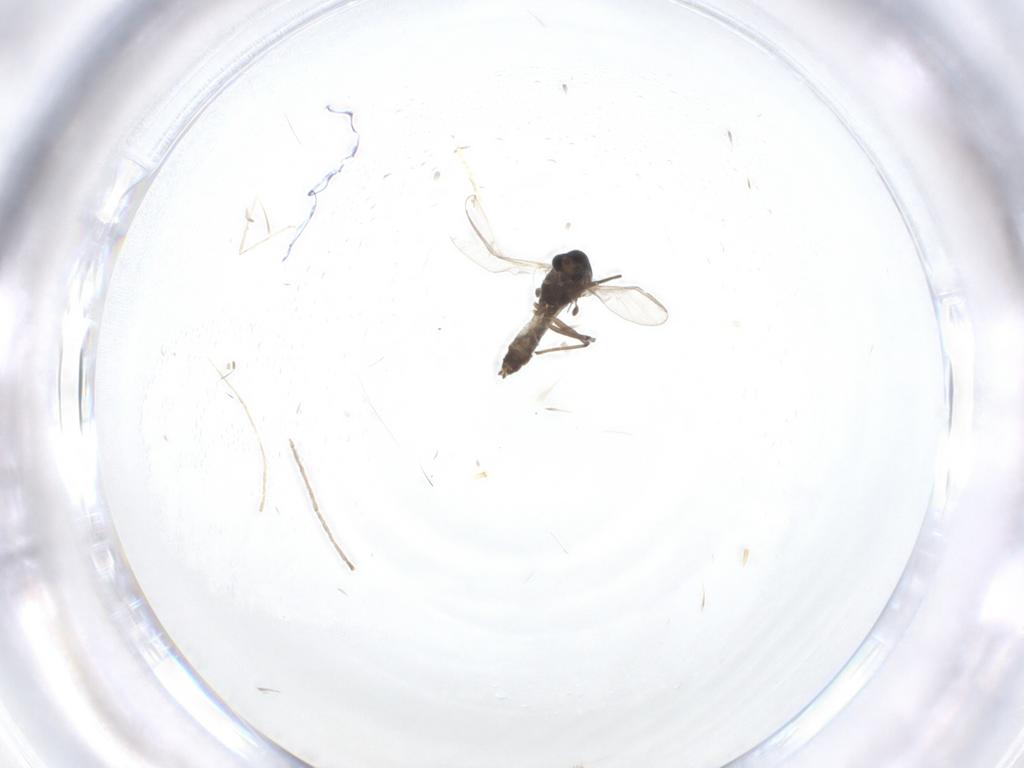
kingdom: Animalia
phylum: Arthropoda
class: Insecta
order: Diptera
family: Chironomidae
